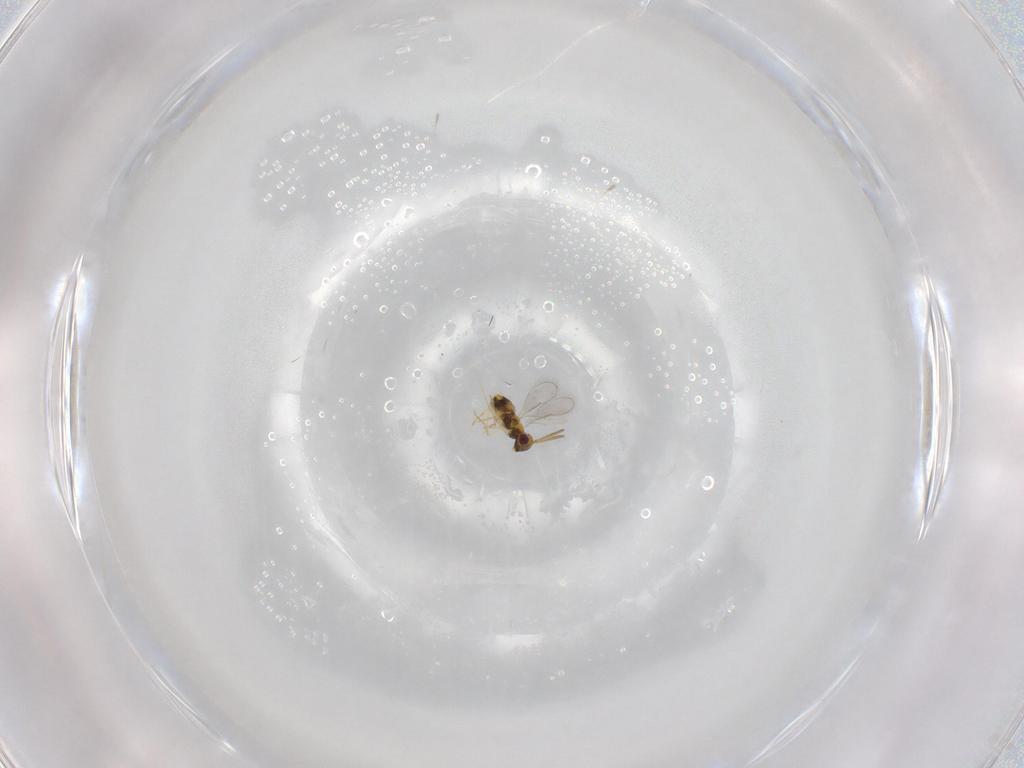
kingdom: Animalia
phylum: Arthropoda
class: Insecta
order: Hymenoptera
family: Aphelinidae
